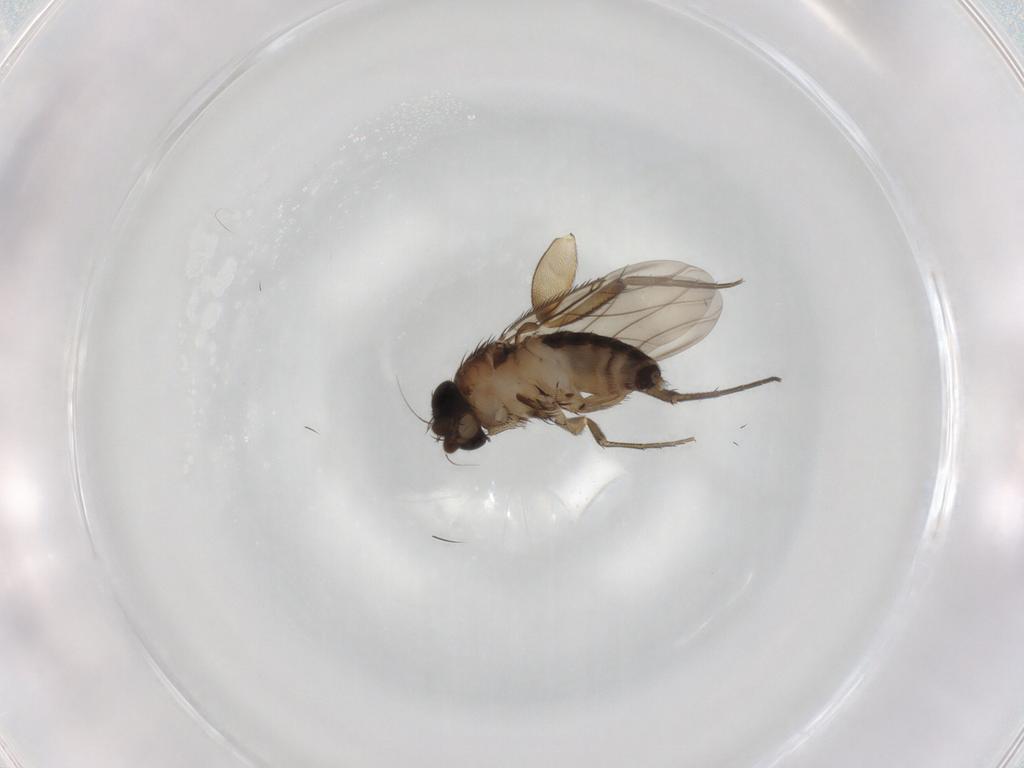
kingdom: Animalia
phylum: Arthropoda
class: Insecta
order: Diptera
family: Phoridae
